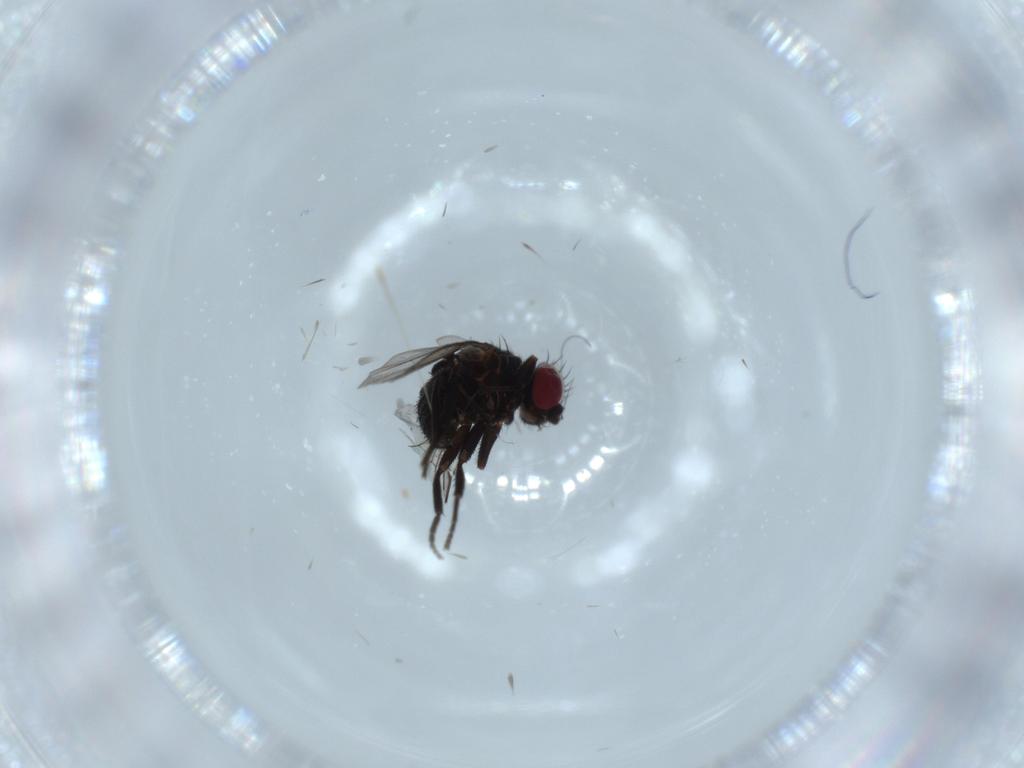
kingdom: Animalia
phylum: Arthropoda
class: Insecta
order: Diptera
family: Agromyzidae
